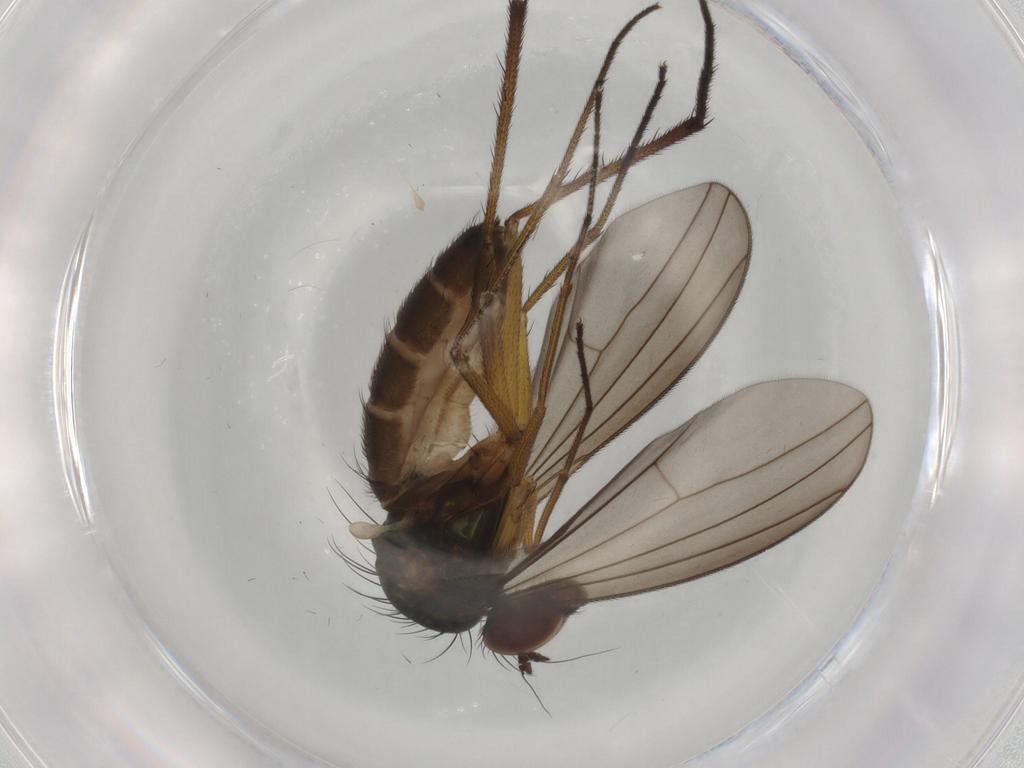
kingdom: Animalia
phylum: Arthropoda
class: Insecta
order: Diptera
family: Dolichopodidae
